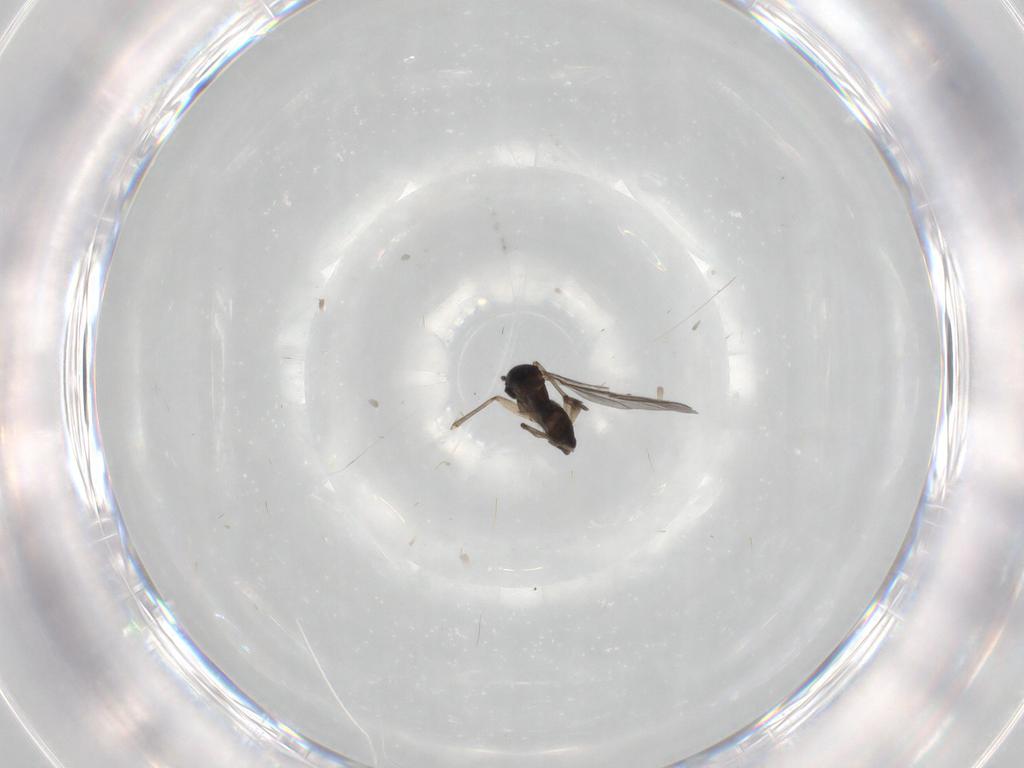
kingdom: Animalia
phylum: Arthropoda
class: Insecta
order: Diptera
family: Sciaridae
